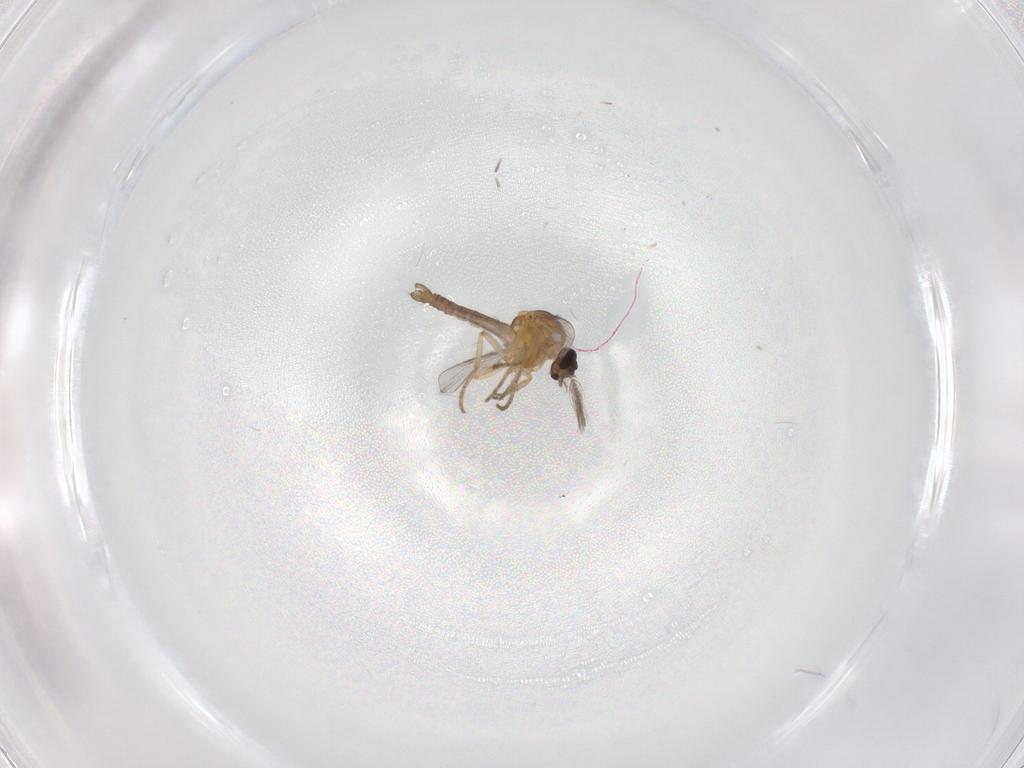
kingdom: Animalia
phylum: Arthropoda
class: Insecta
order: Diptera
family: Chironomidae
